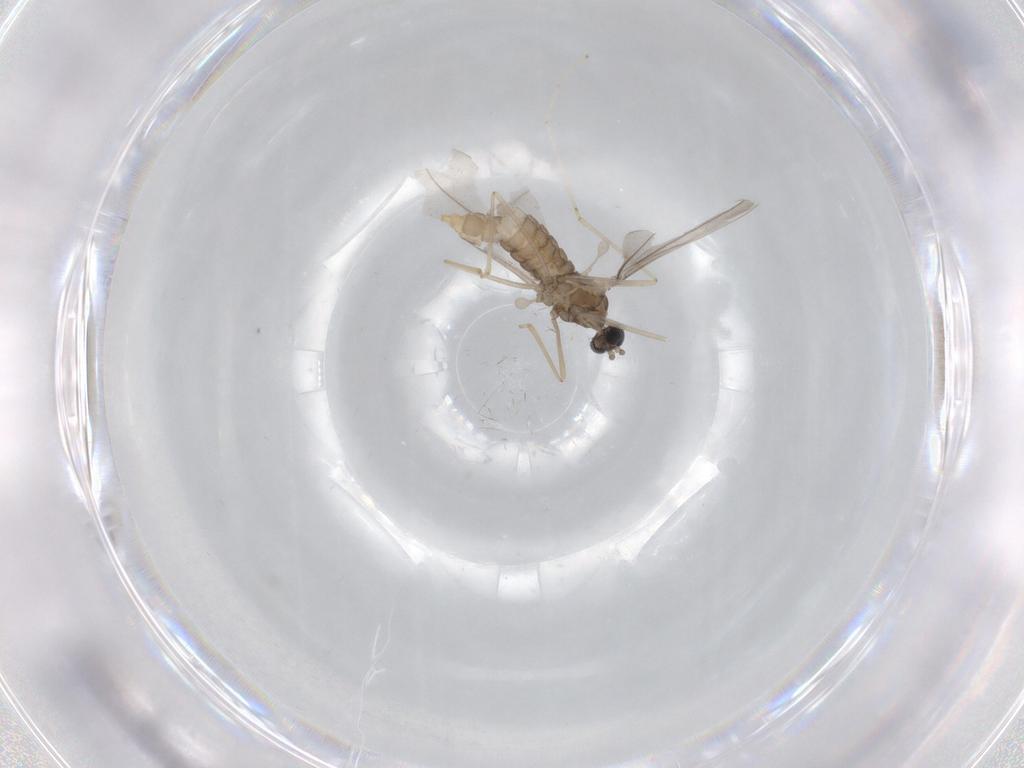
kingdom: Animalia
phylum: Arthropoda
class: Insecta
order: Diptera
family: Cecidomyiidae
